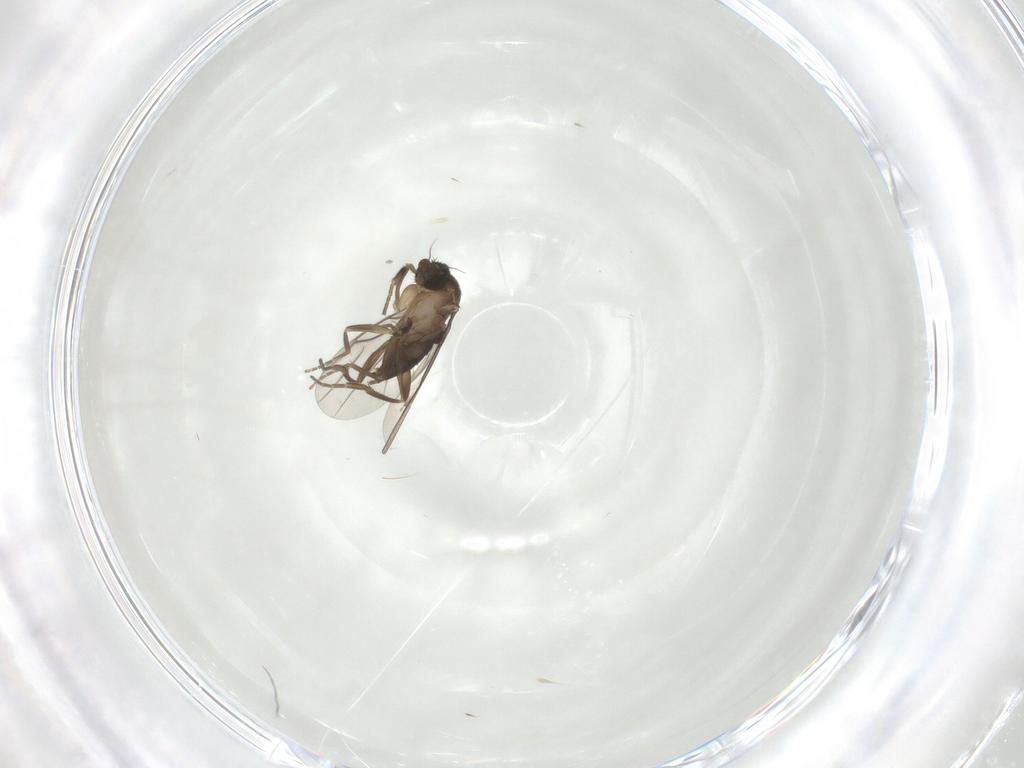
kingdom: Animalia
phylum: Arthropoda
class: Insecta
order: Diptera
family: Phoridae
